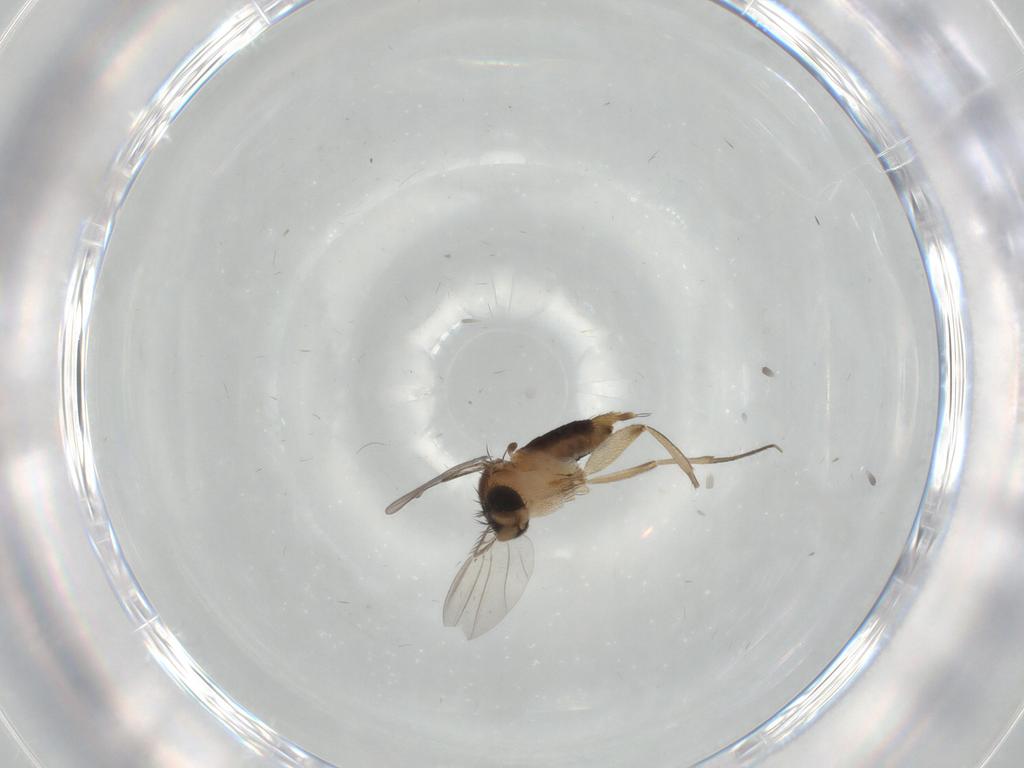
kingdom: Animalia
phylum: Arthropoda
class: Insecta
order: Diptera
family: Phoridae
